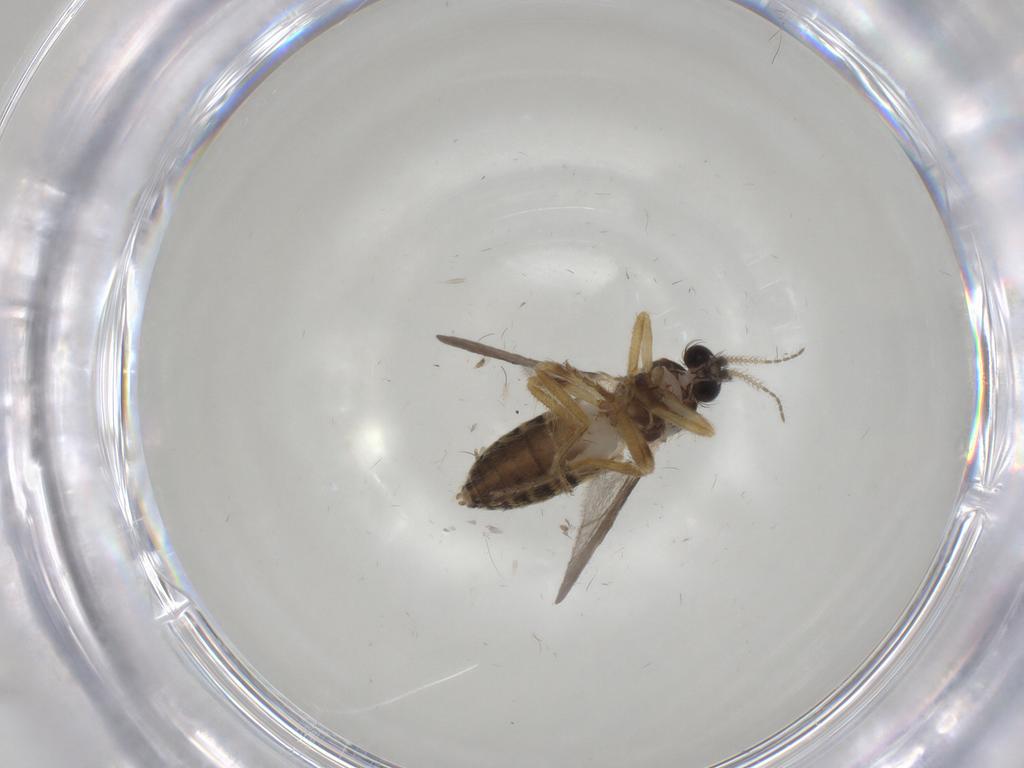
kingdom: Animalia
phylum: Arthropoda
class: Insecta
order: Diptera
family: Ceratopogonidae
